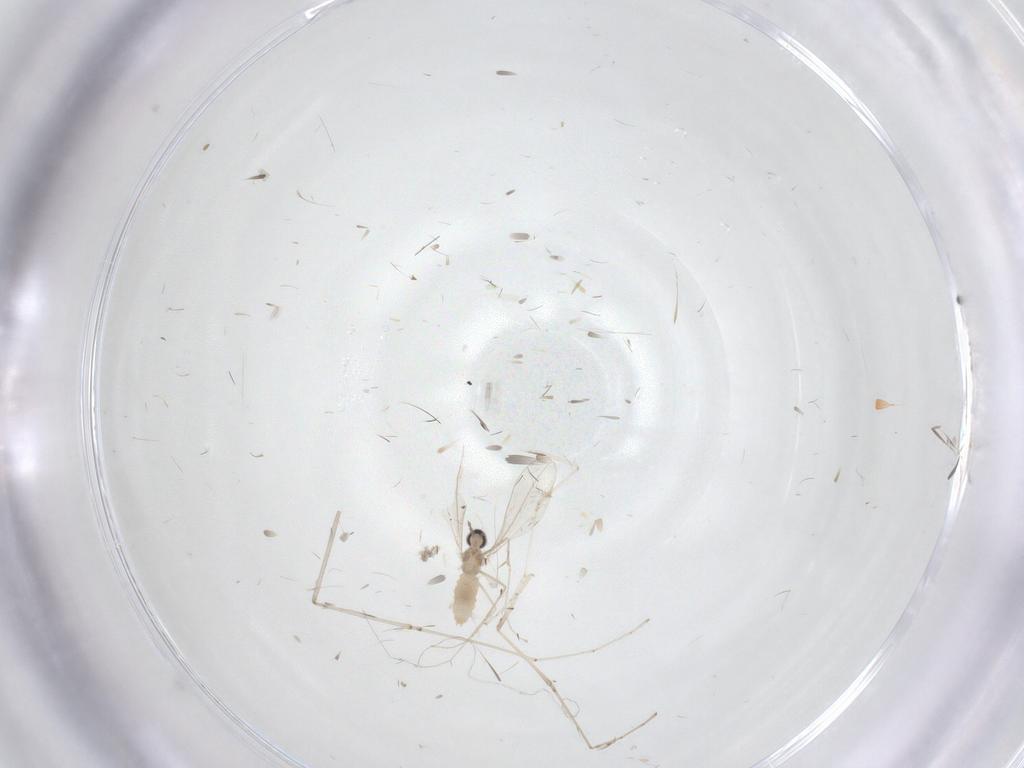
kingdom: Animalia
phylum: Arthropoda
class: Insecta
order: Diptera
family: Cecidomyiidae
